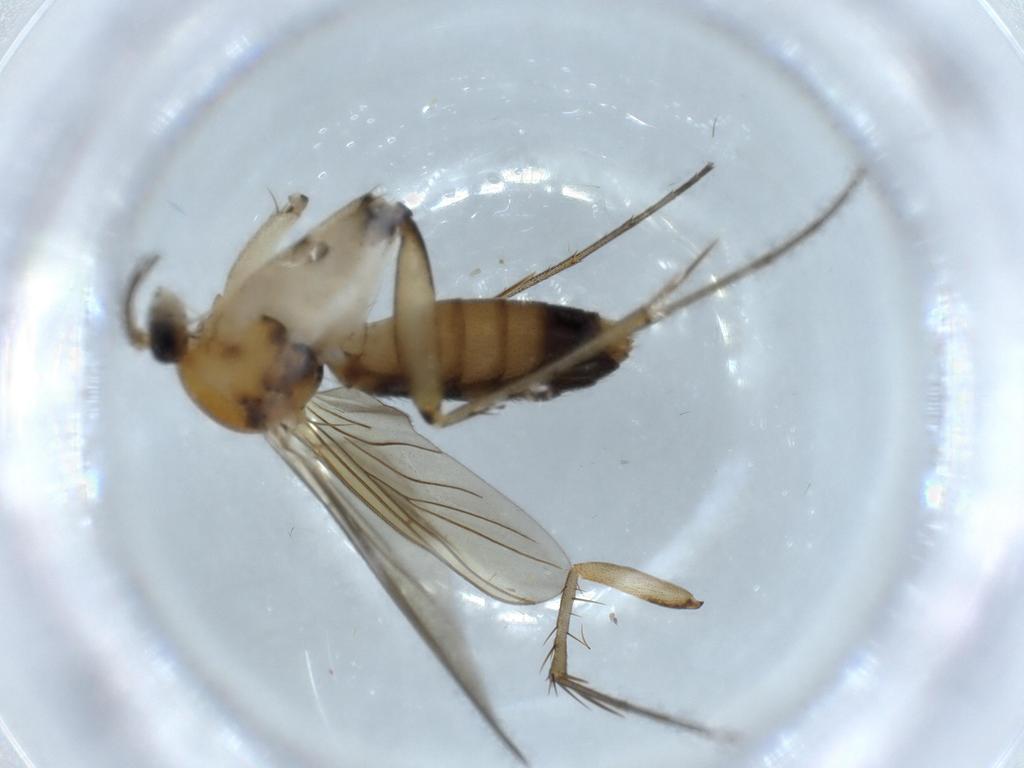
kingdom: Animalia
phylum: Arthropoda
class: Insecta
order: Diptera
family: Mycetophilidae
